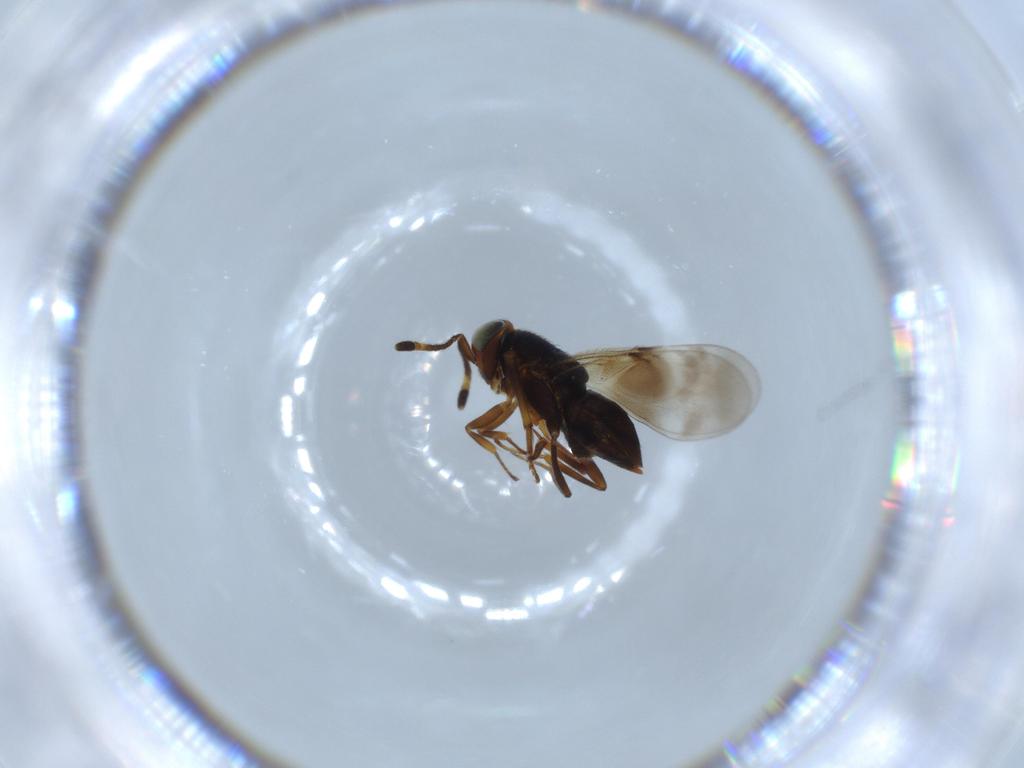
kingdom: Animalia
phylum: Arthropoda
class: Insecta
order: Hymenoptera
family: Encyrtidae
